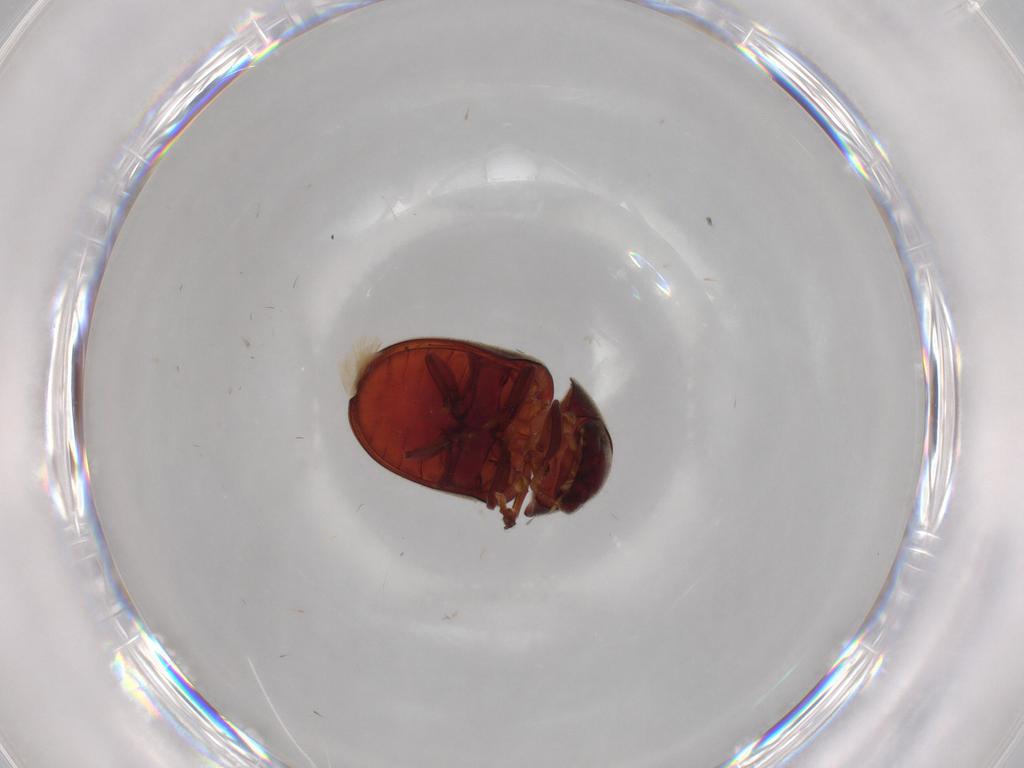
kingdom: Animalia
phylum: Arthropoda
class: Insecta
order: Coleoptera
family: Ptinidae
